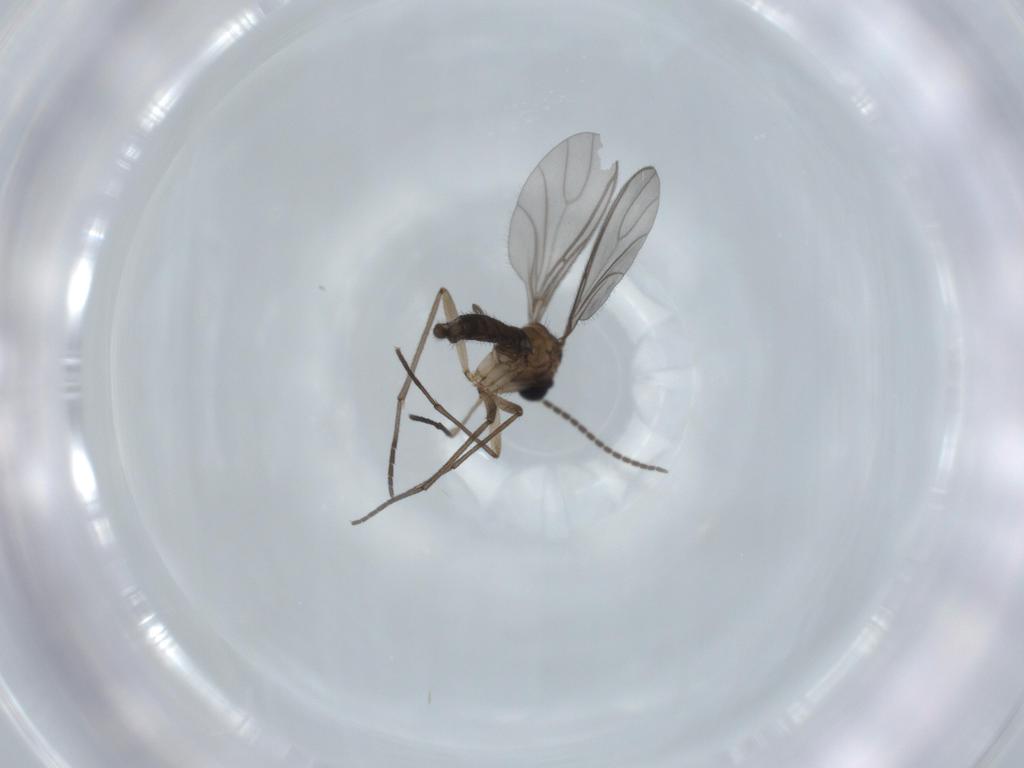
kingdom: Animalia
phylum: Arthropoda
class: Insecta
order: Diptera
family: Sciaridae
